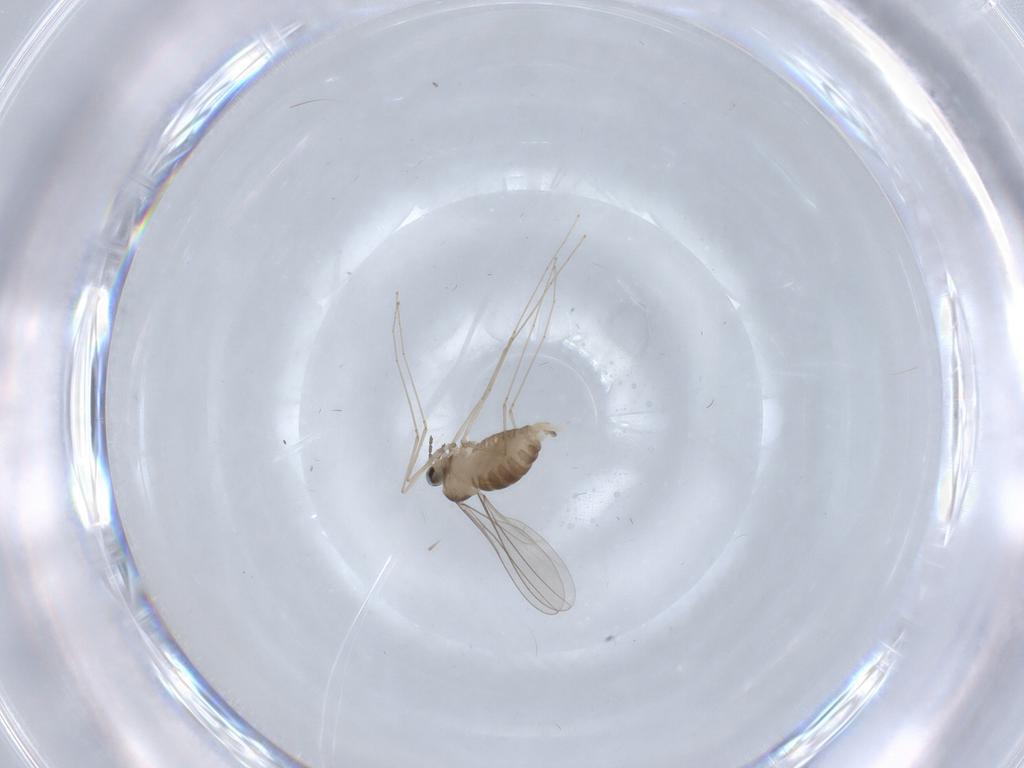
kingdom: Animalia
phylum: Arthropoda
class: Insecta
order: Diptera
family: Cecidomyiidae
